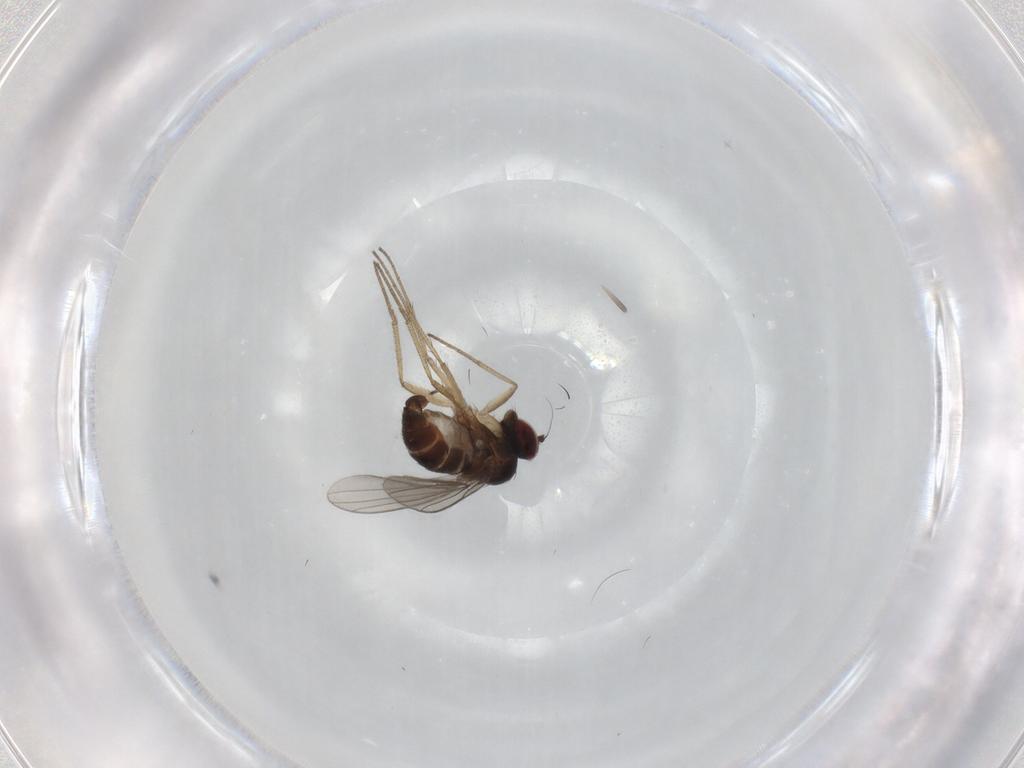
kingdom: Animalia
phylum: Arthropoda
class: Insecta
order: Diptera
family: Dolichopodidae
